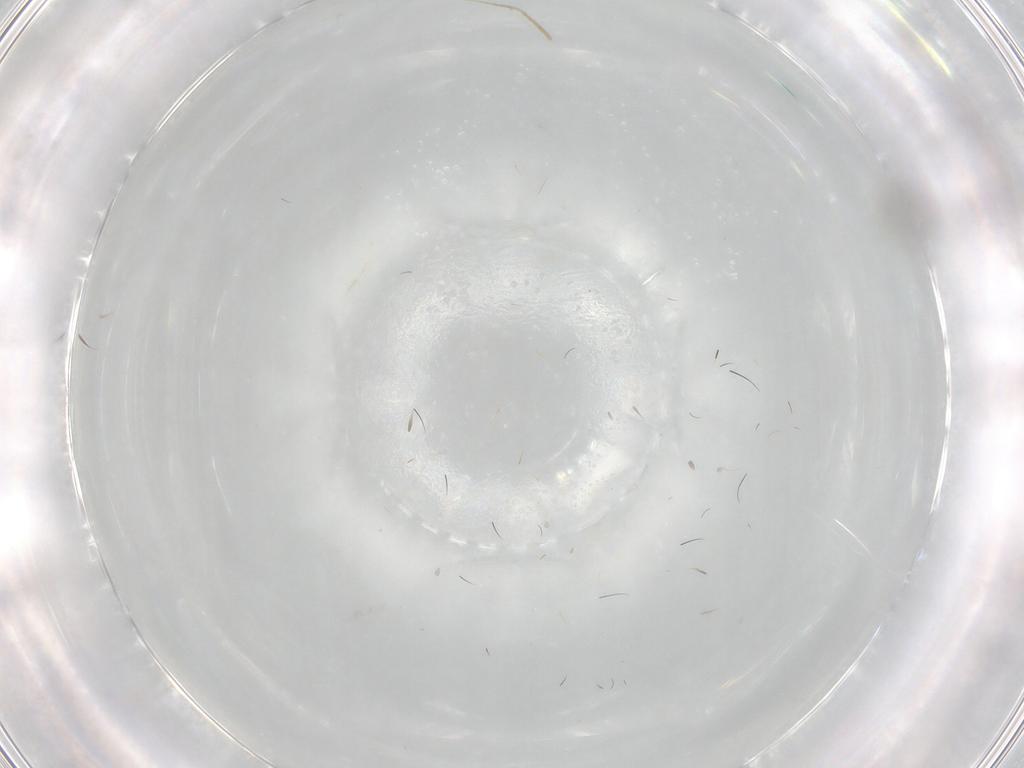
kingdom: Animalia
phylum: Arthropoda
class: Insecta
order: Diptera
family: Cecidomyiidae
